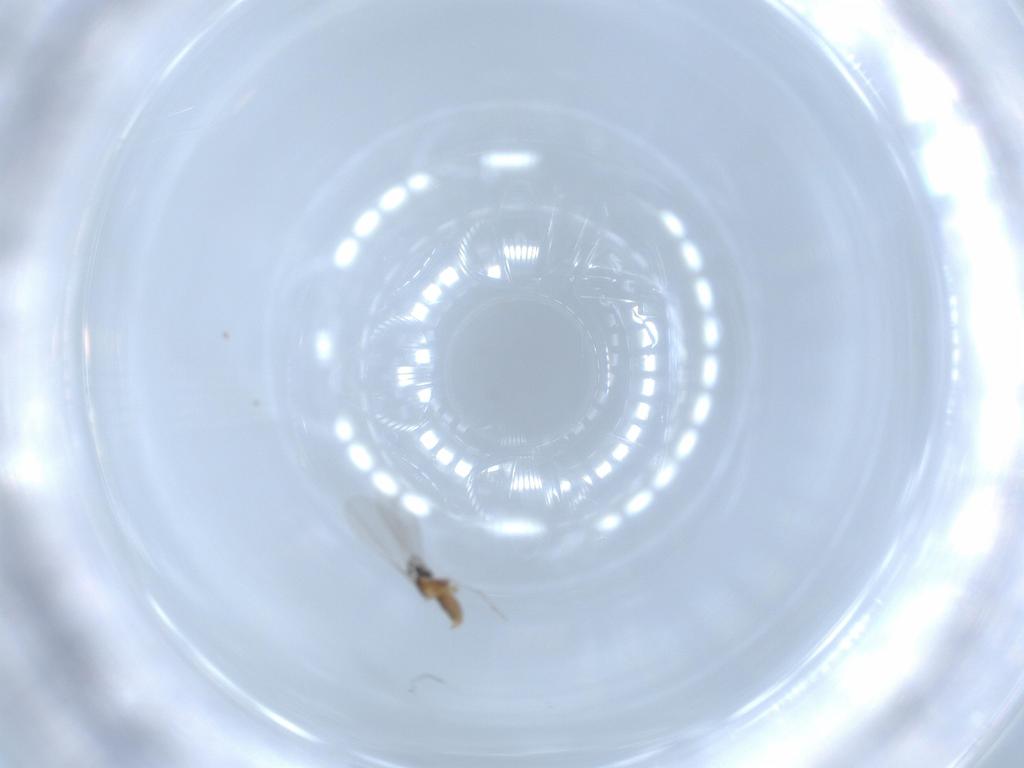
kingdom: Animalia
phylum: Arthropoda
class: Insecta
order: Diptera
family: Cecidomyiidae
